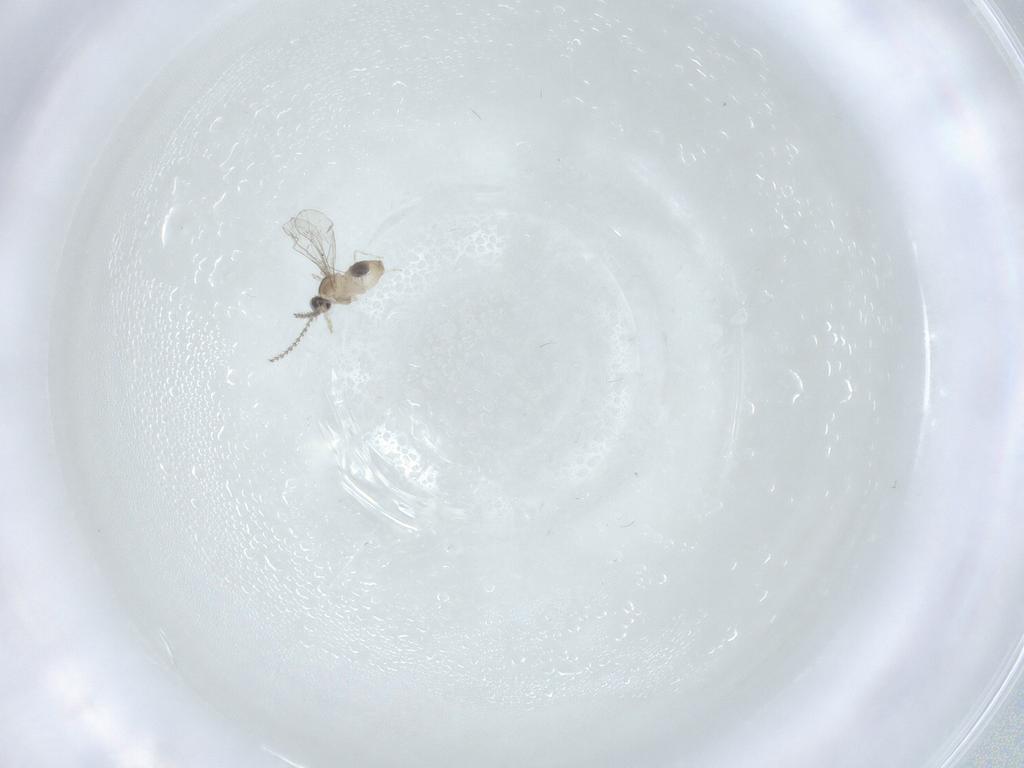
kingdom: Animalia
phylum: Arthropoda
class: Insecta
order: Diptera
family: Cecidomyiidae
